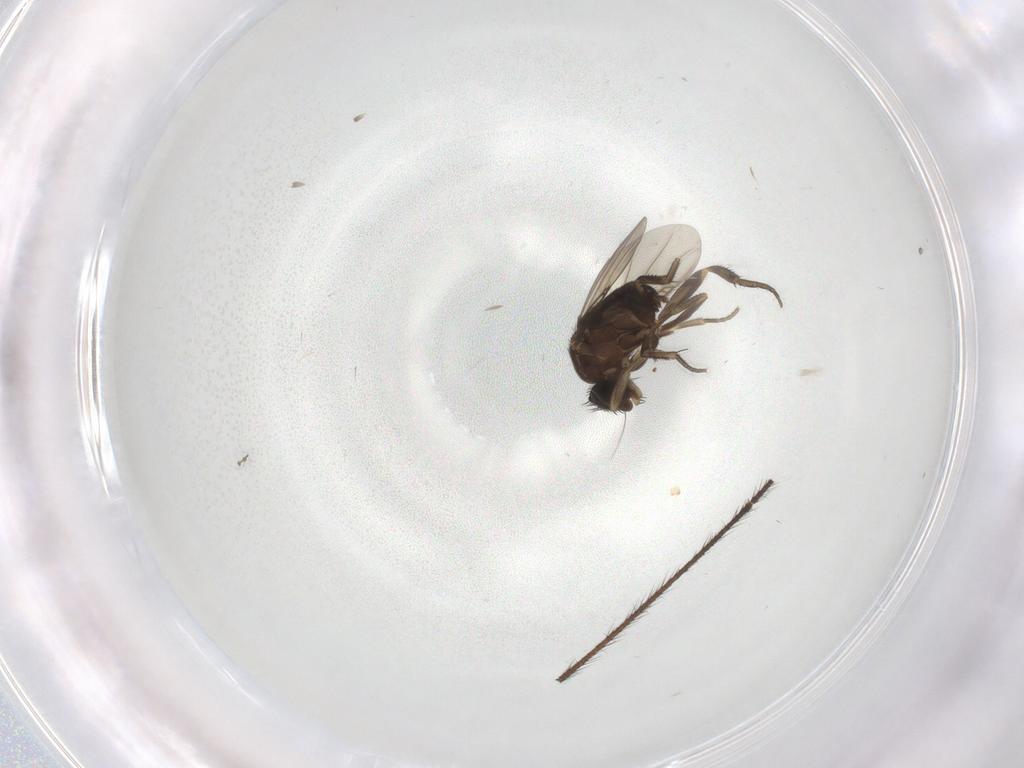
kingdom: Animalia
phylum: Arthropoda
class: Insecta
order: Diptera
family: Phoridae
